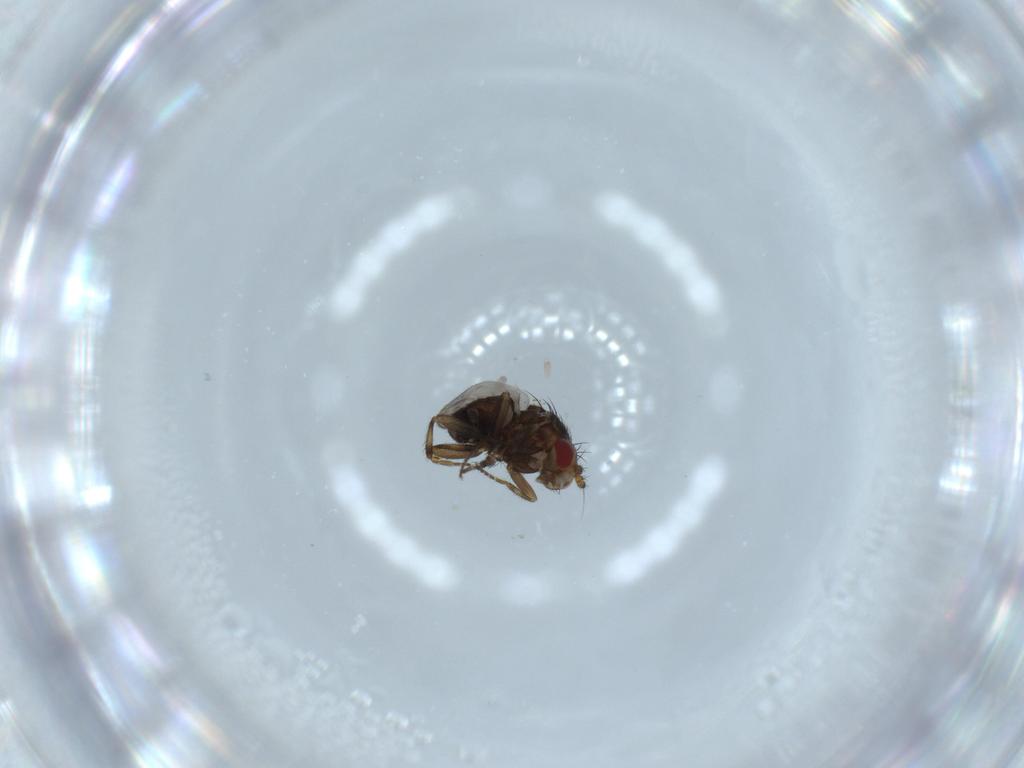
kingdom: Animalia
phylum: Arthropoda
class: Insecta
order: Diptera
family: Sphaeroceridae
